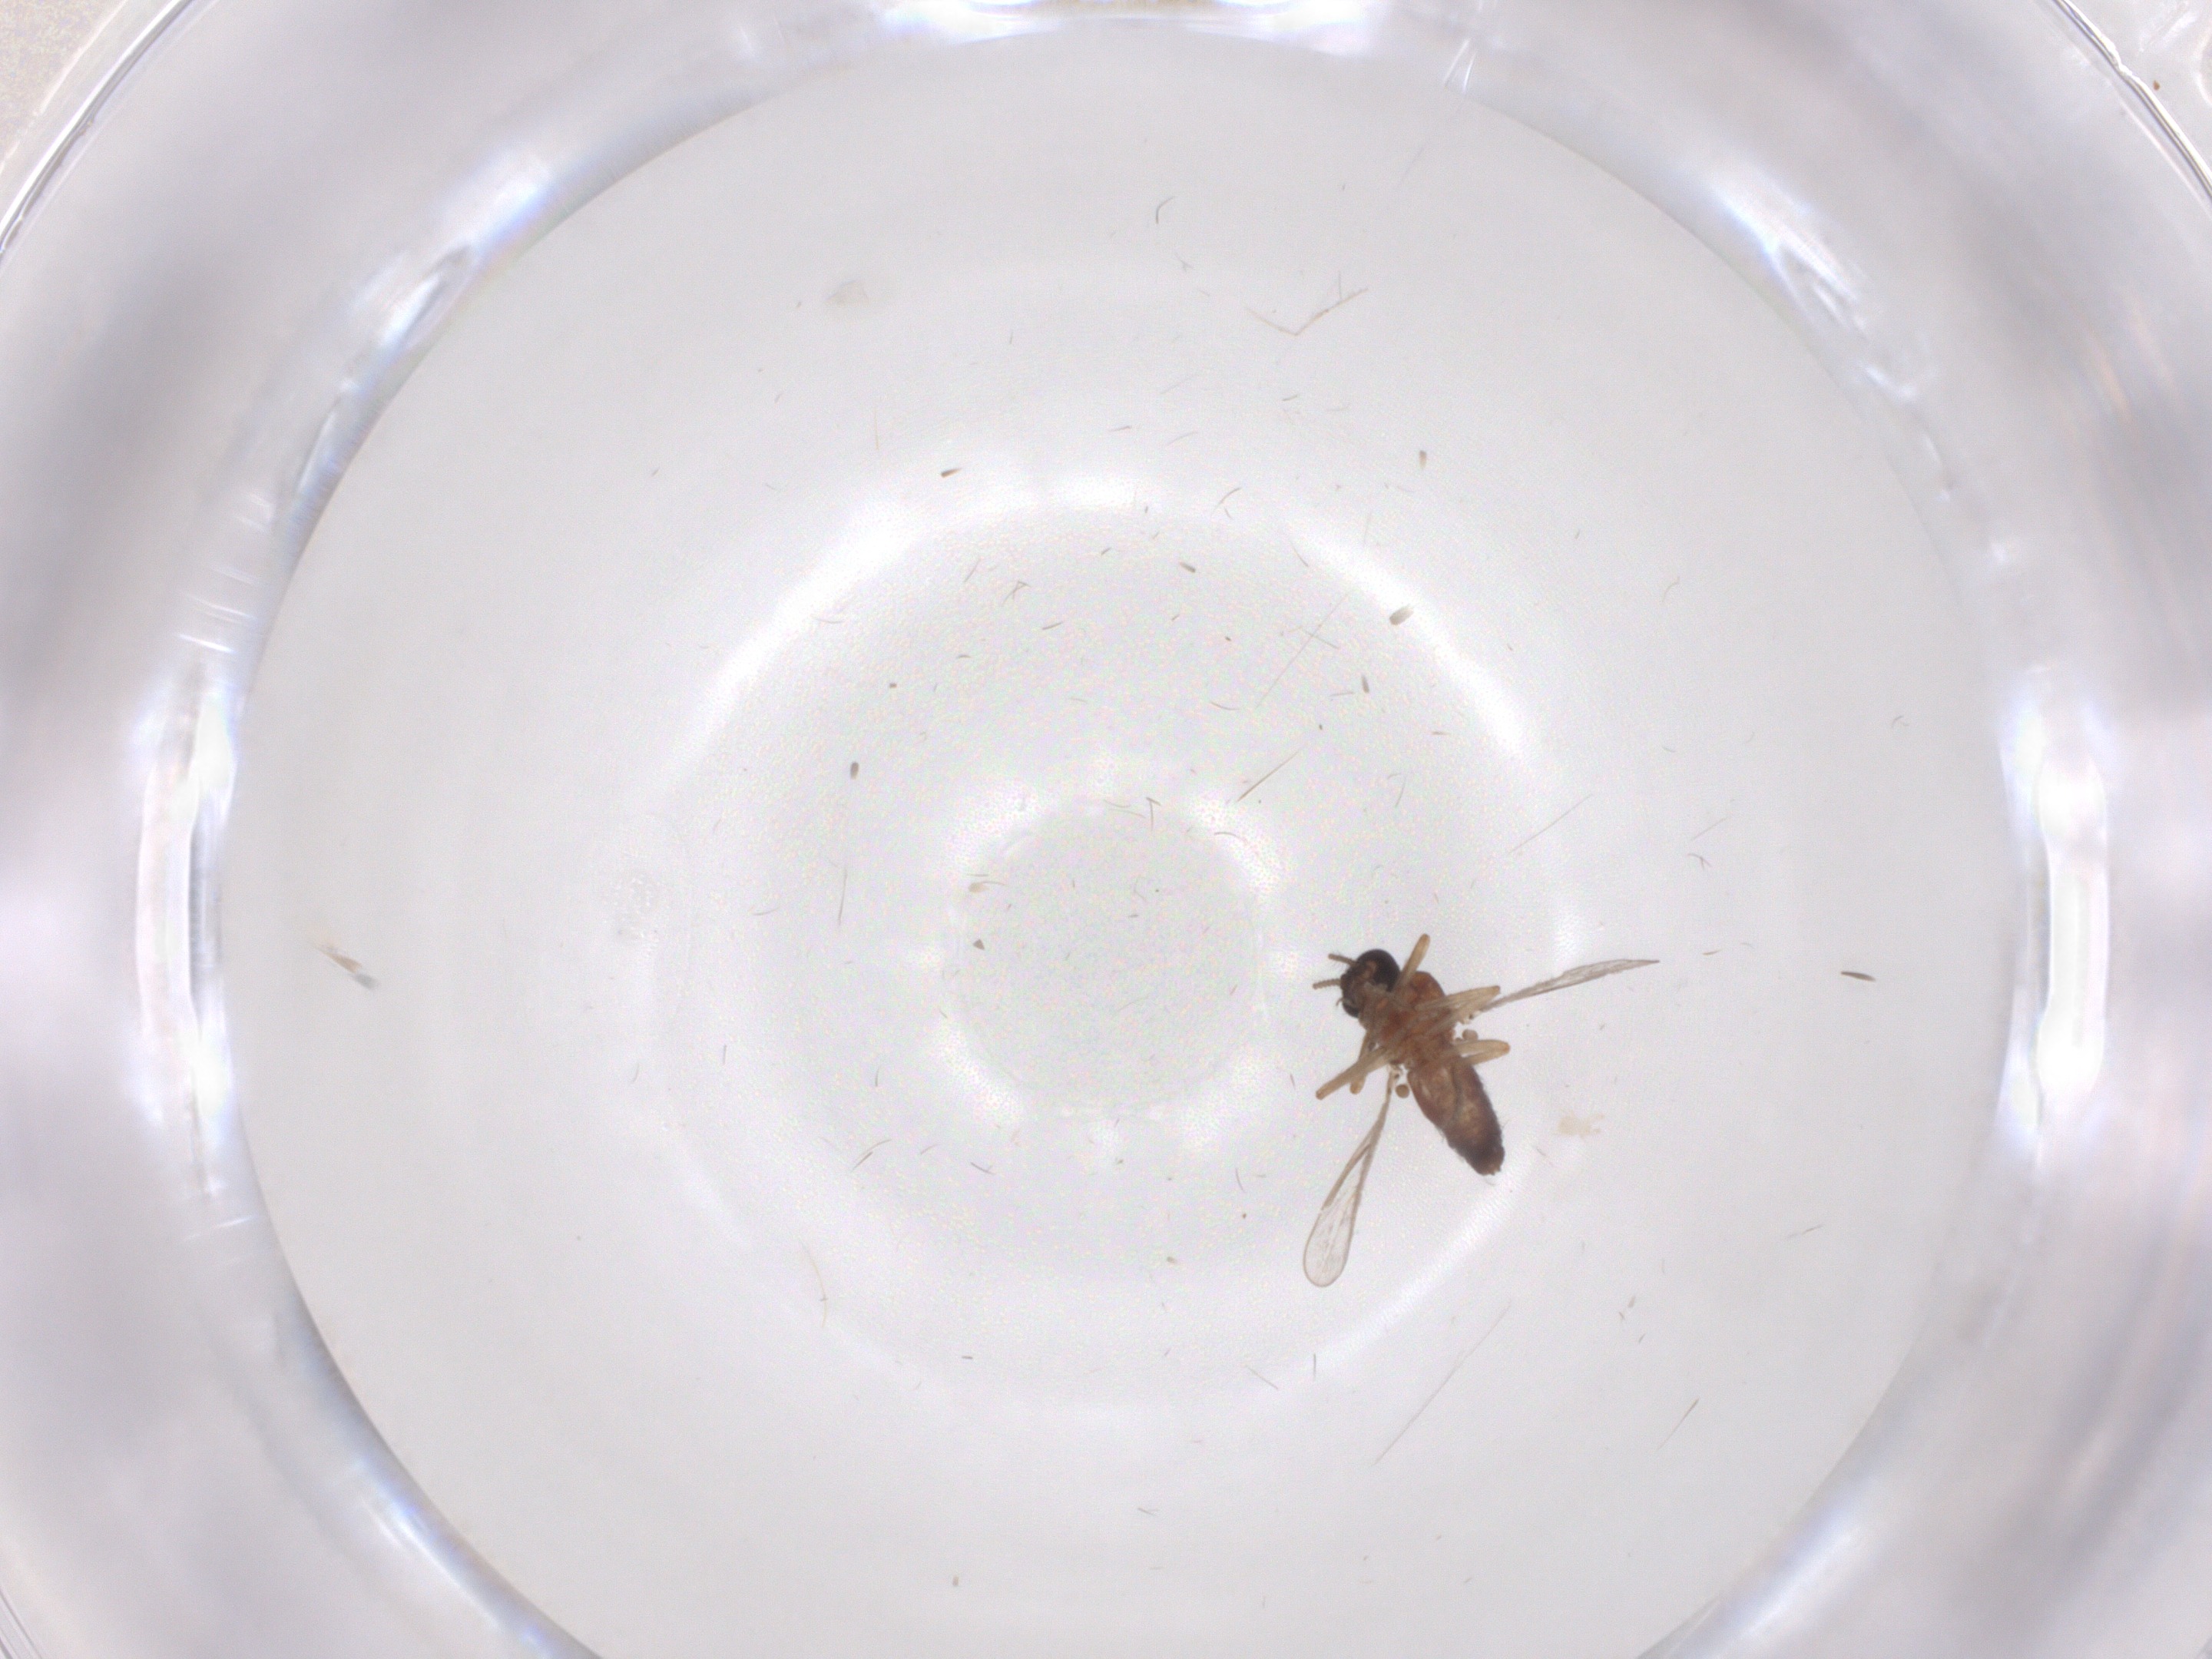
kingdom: Animalia
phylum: Arthropoda
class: Insecta
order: Diptera
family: Ceratopogonidae
